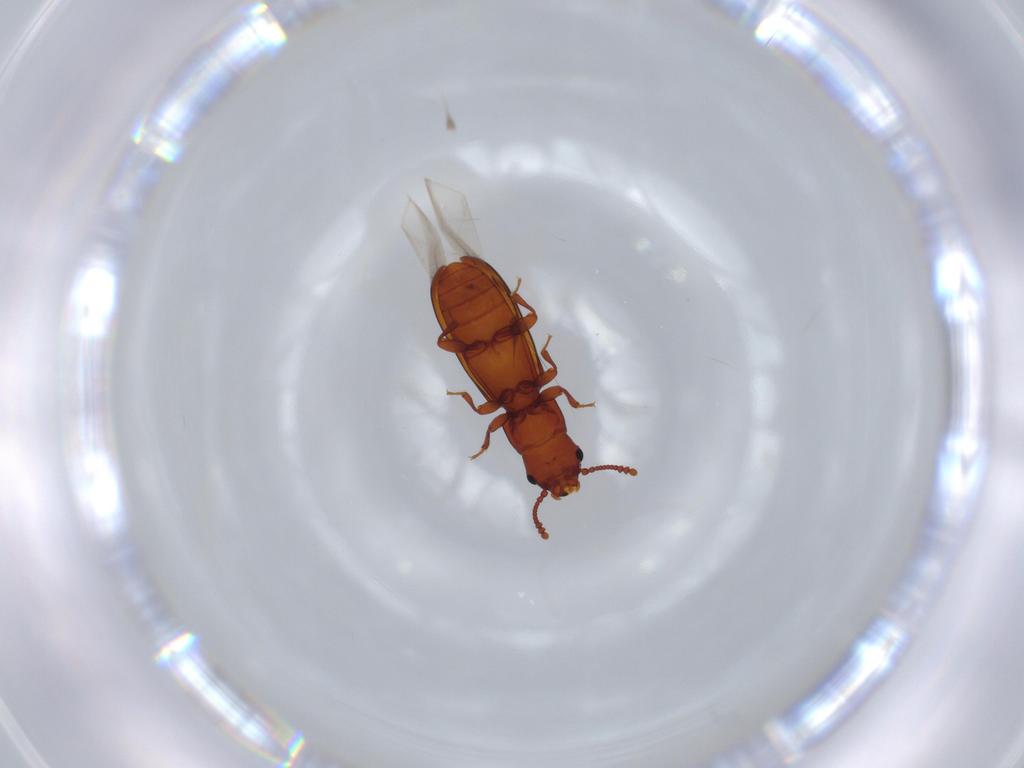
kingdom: Animalia
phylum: Arthropoda
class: Insecta
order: Coleoptera
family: Salpingidae
